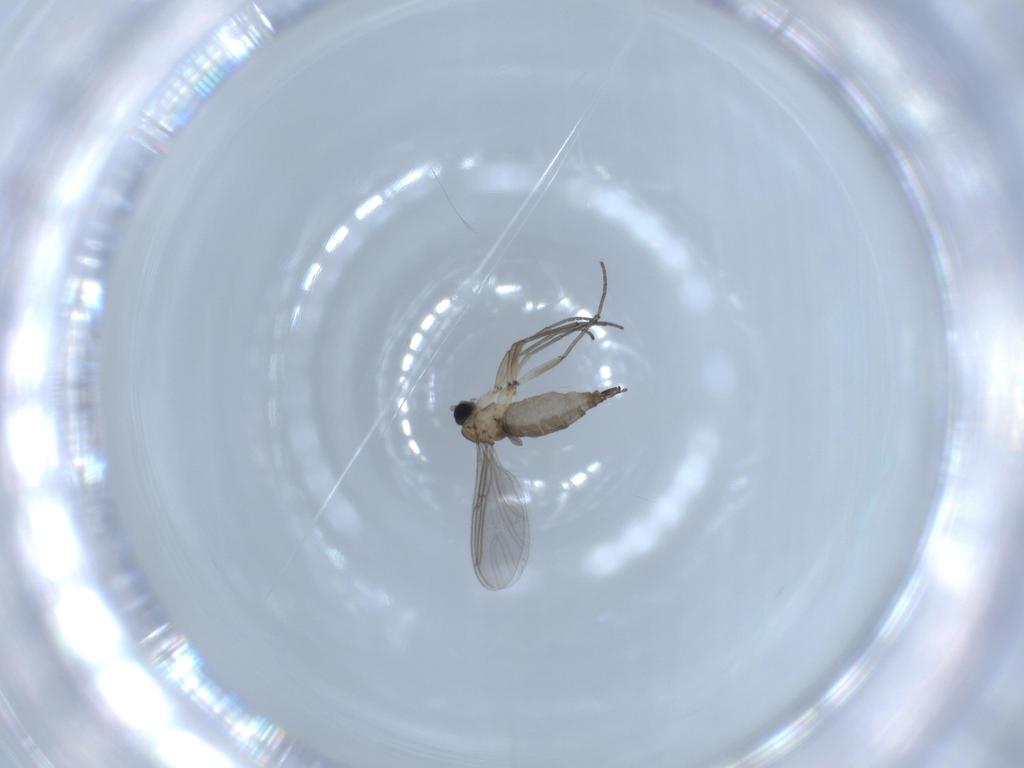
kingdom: Animalia
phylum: Arthropoda
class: Insecta
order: Diptera
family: Sciaridae
